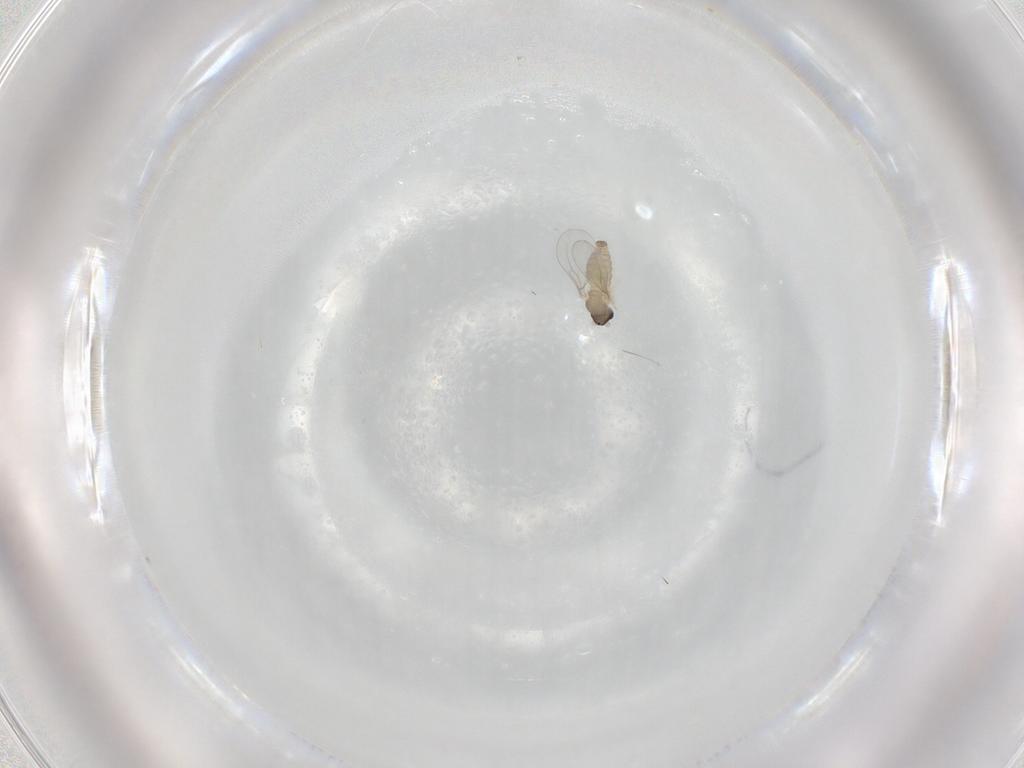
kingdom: Animalia
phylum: Arthropoda
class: Insecta
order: Diptera
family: Cecidomyiidae
